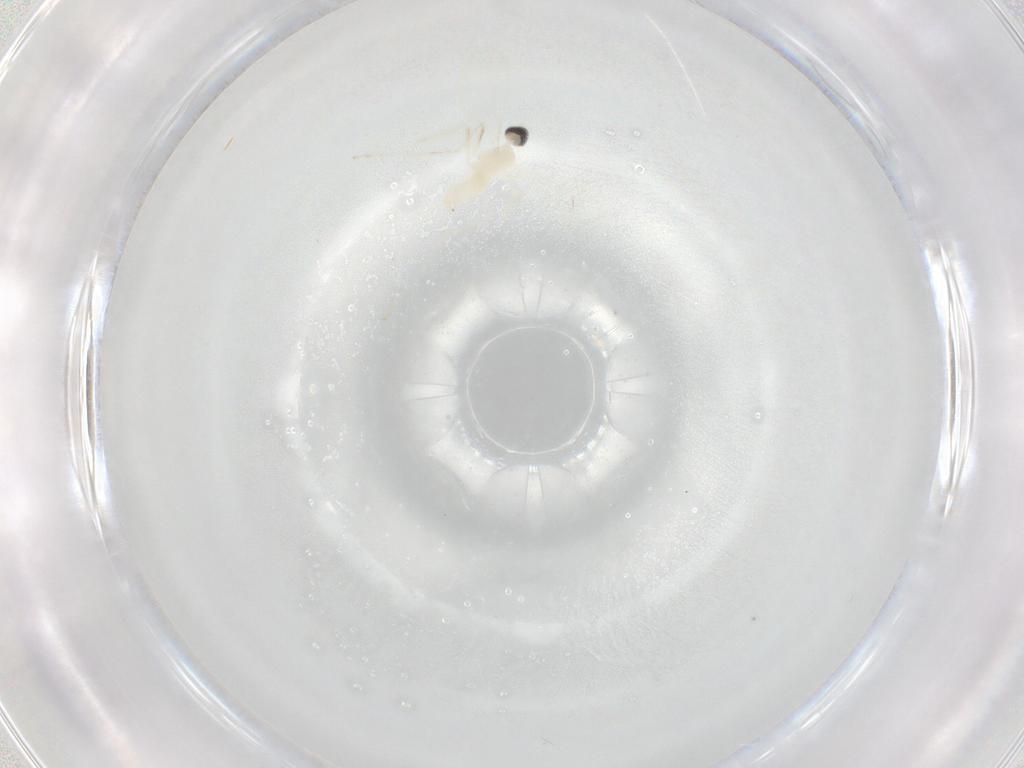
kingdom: Animalia
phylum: Arthropoda
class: Insecta
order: Diptera
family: Cecidomyiidae
